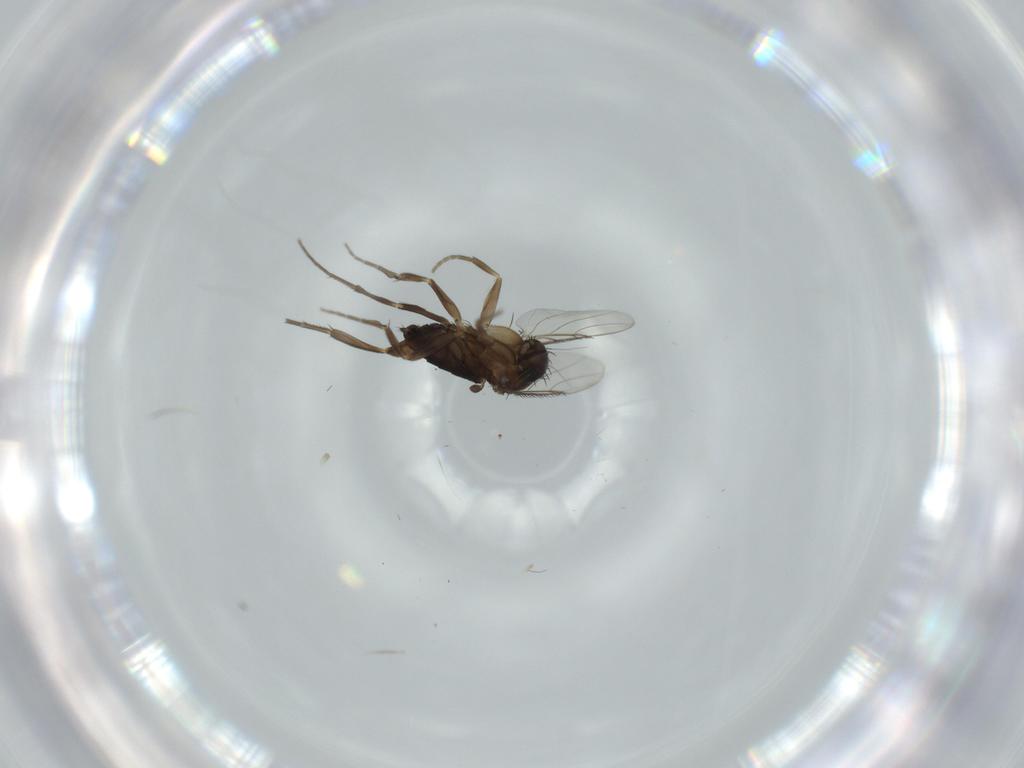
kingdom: Animalia
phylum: Arthropoda
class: Insecta
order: Diptera
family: Phoridae
